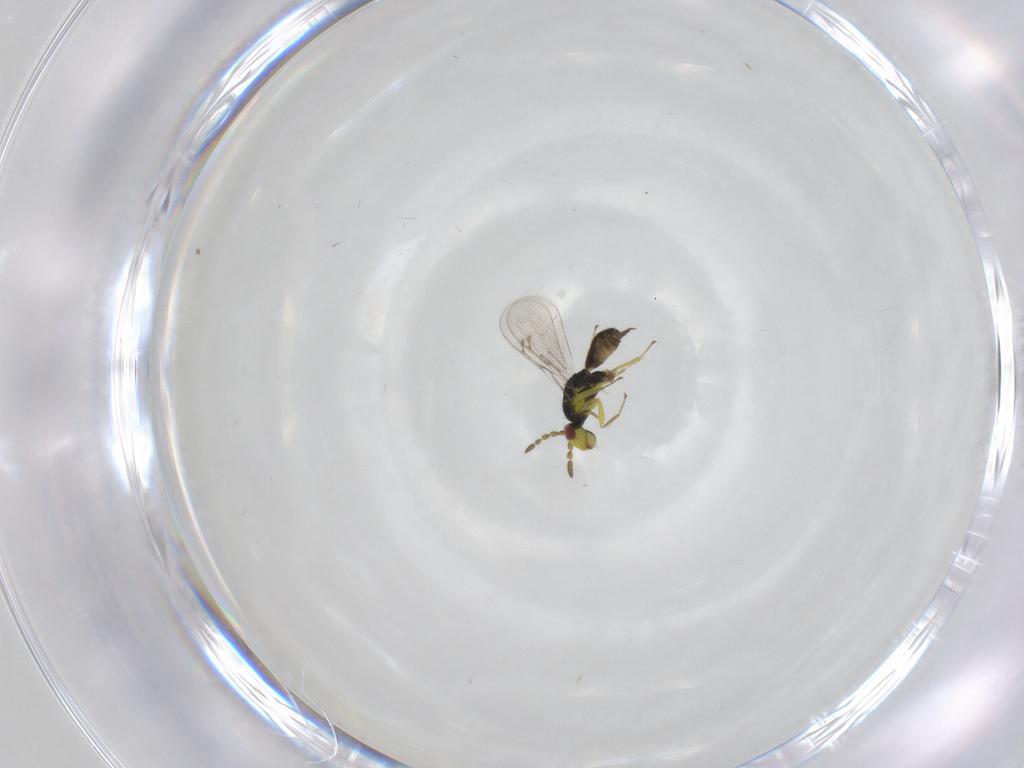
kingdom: Animalia
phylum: Arthropoda
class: Insecta
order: Hymenoptera
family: Eulophidae
